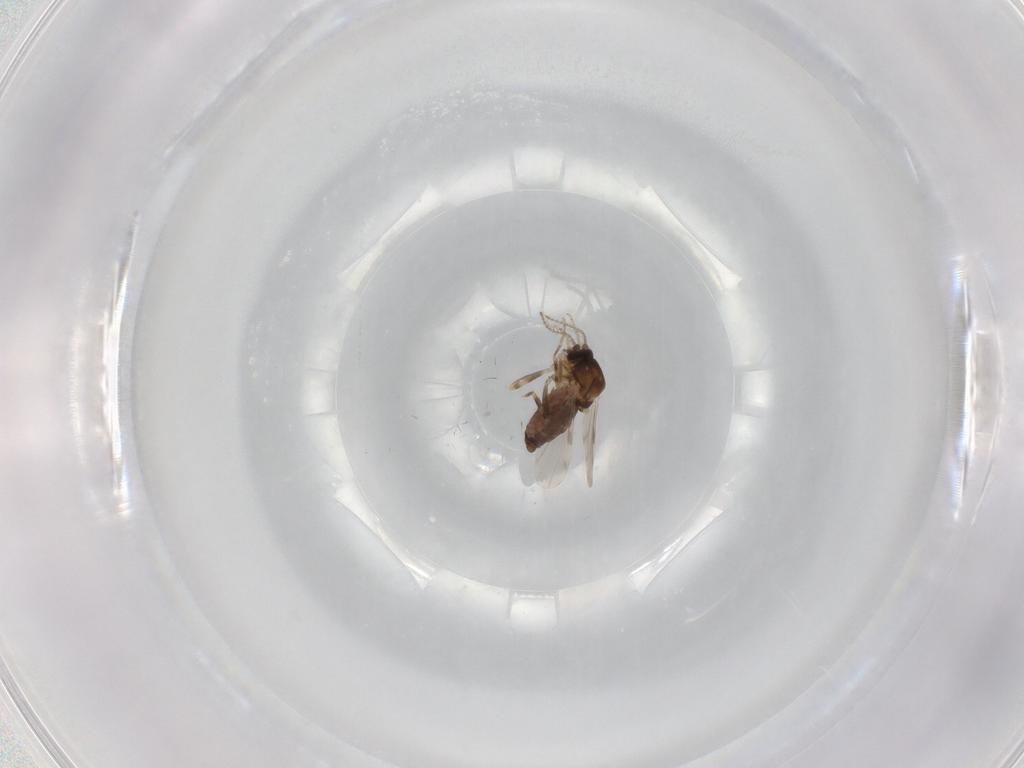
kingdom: Animalia
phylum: Arthropoda
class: Insecta
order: Diptera
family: Ceratopogonidae
